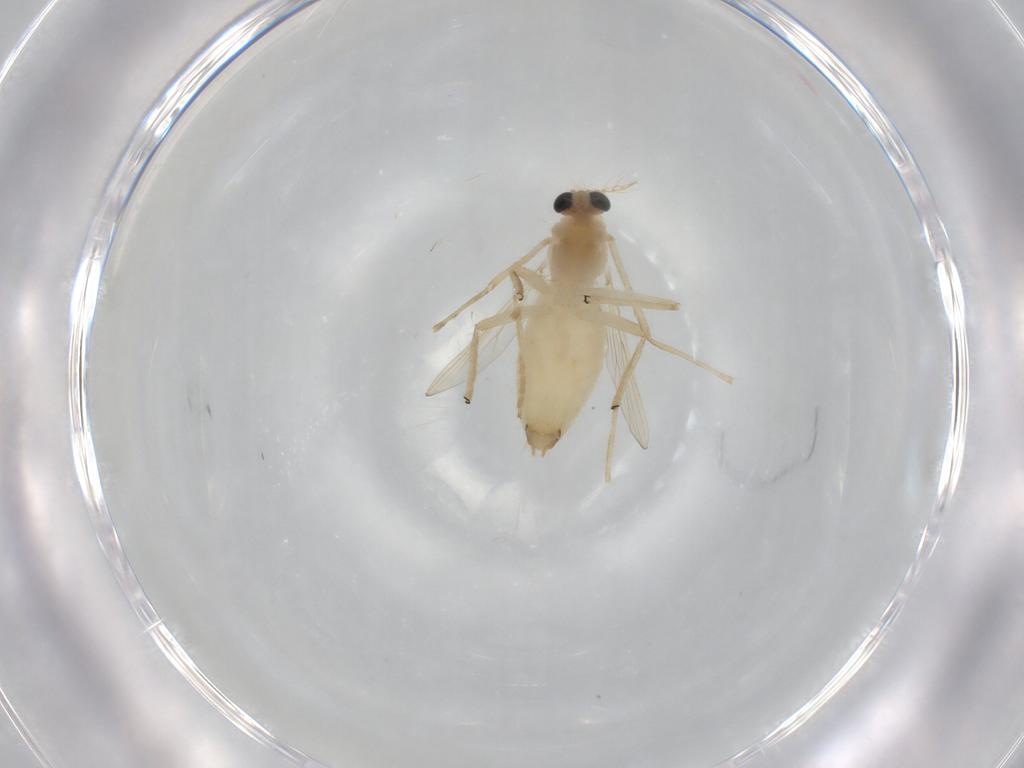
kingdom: Animalia
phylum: Arthropoda
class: Insecta
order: Diptera
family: Chironomidae
